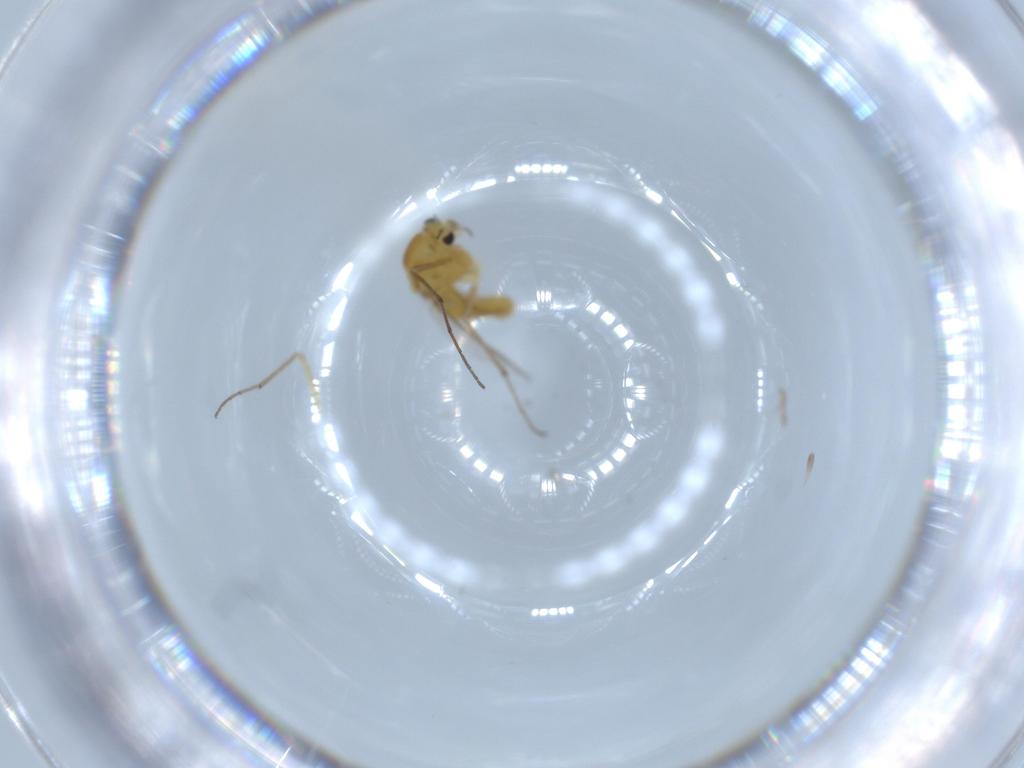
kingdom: Animalia
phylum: Arthropoda
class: Insecta
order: Diptera
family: Chironomidae
